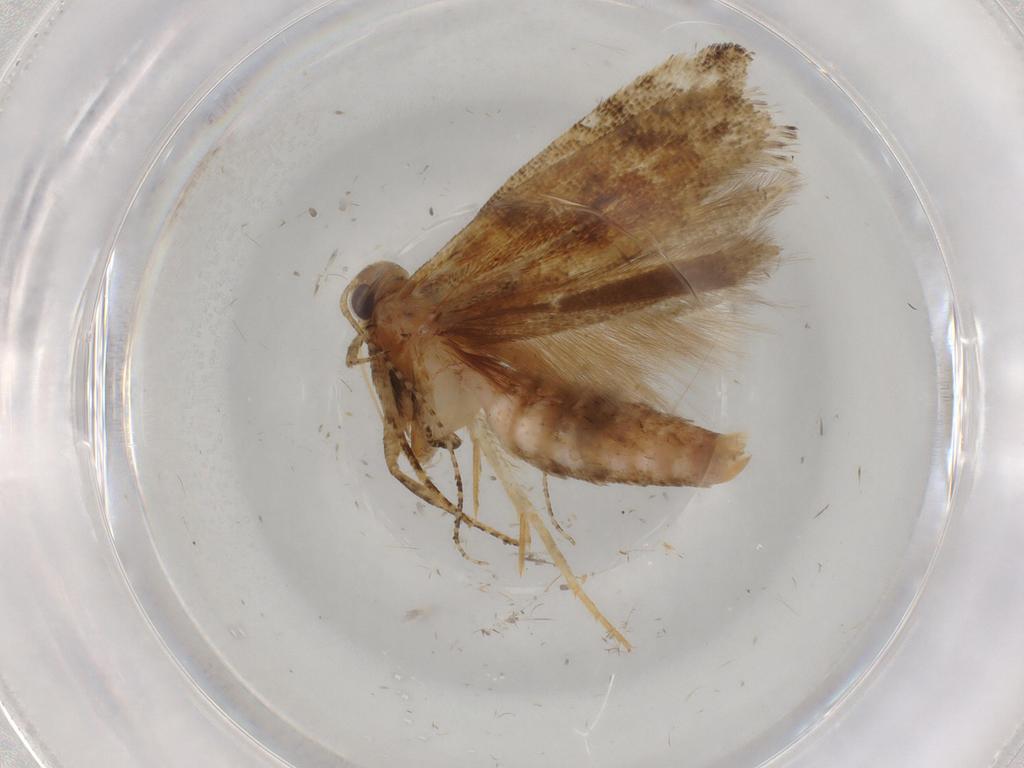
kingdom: Animalia
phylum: Arthropoda
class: Insecta
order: Lepidoptera
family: Gelechiidae
